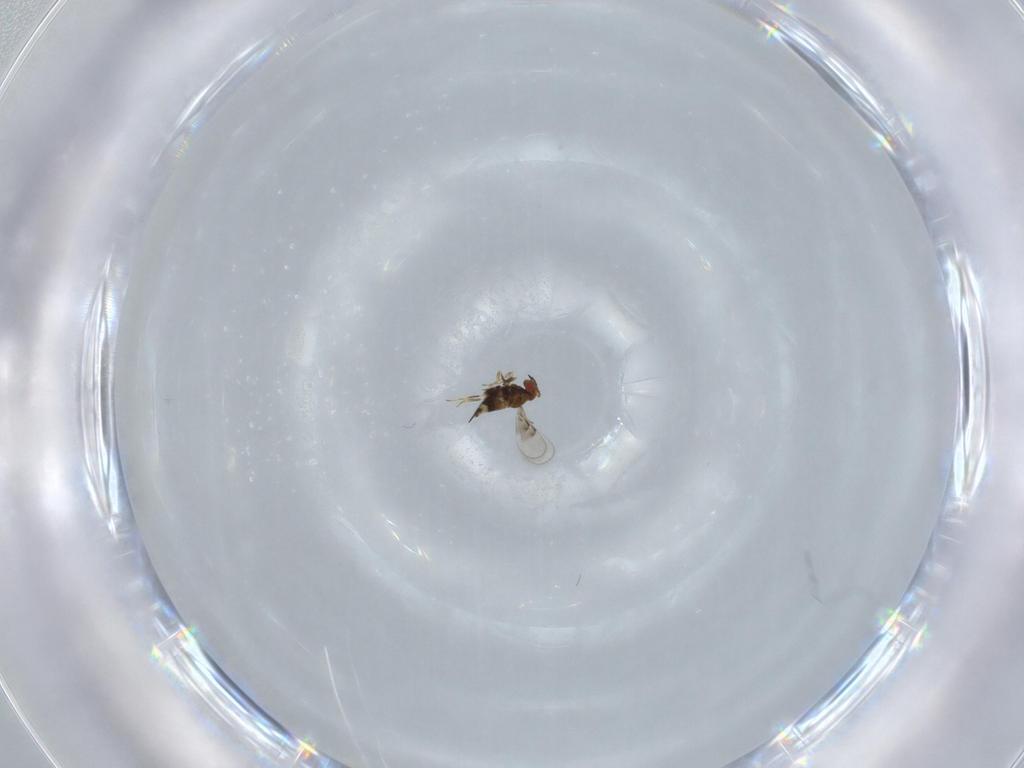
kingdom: Animalia
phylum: Arthropoda
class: Insecta
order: Hymenoptera
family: Trichogrammatidae
